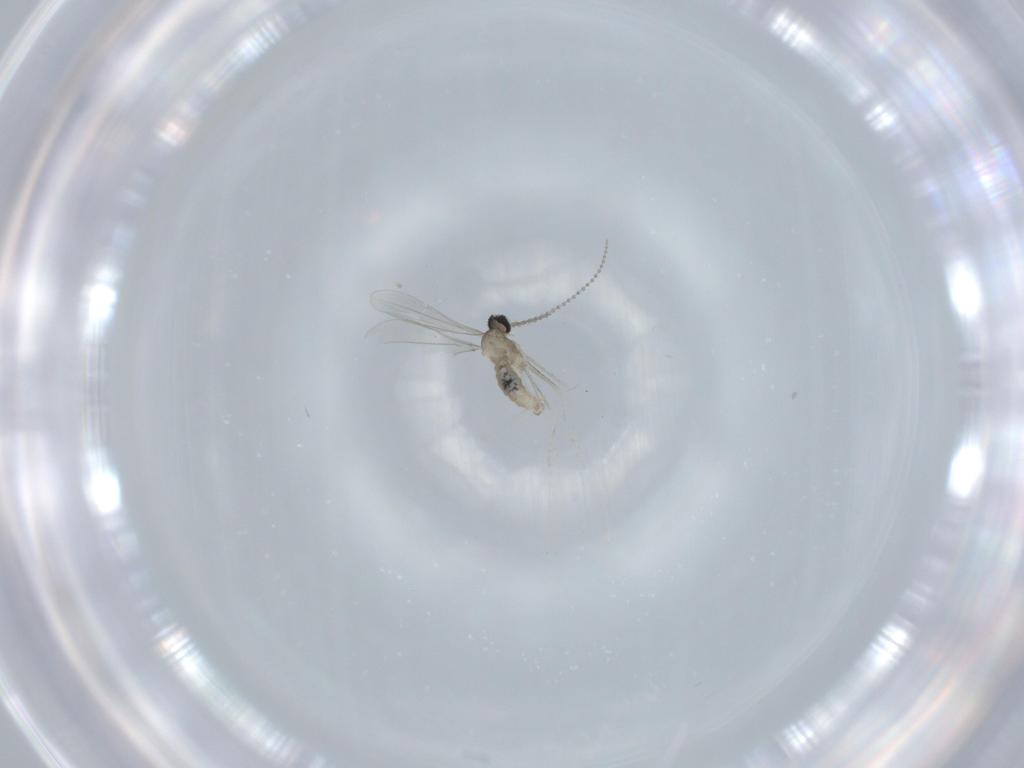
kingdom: Animalia
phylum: Arthropoda
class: Insecta
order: Diptera
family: Cecidomyiidae
